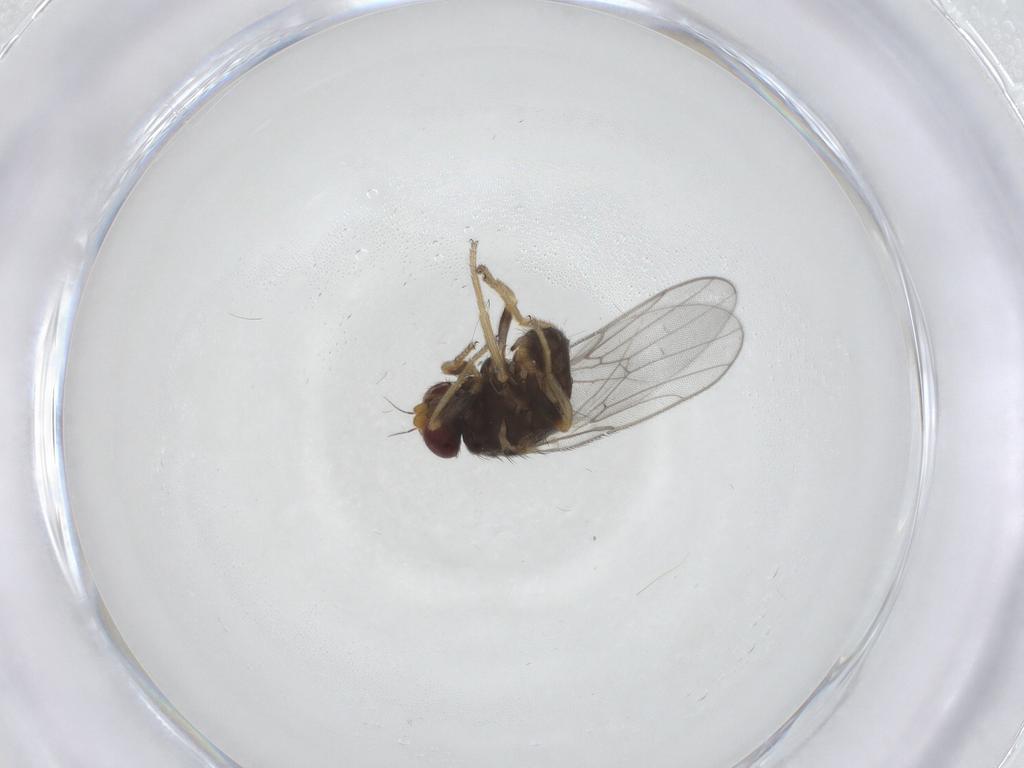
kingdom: Animalia
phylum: Arthropoda
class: Insecta
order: Diptera
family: Chloropidae
